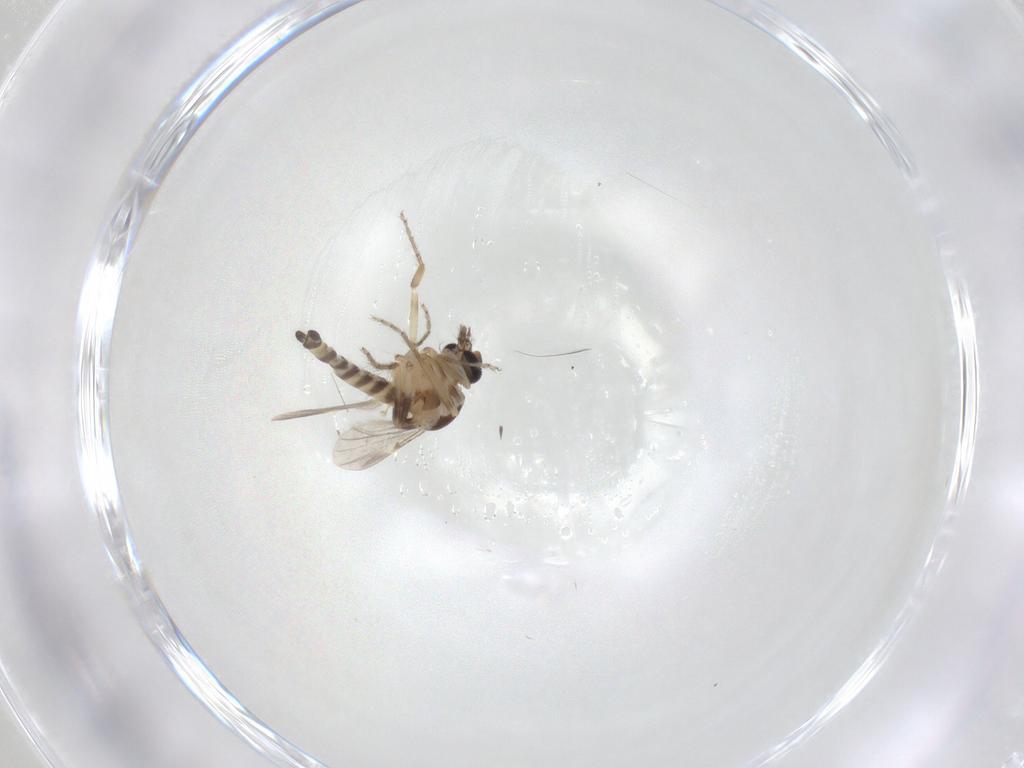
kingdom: Animalia
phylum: Arthropoda
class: Insecta
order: Diptera
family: Ceratopogonidae
